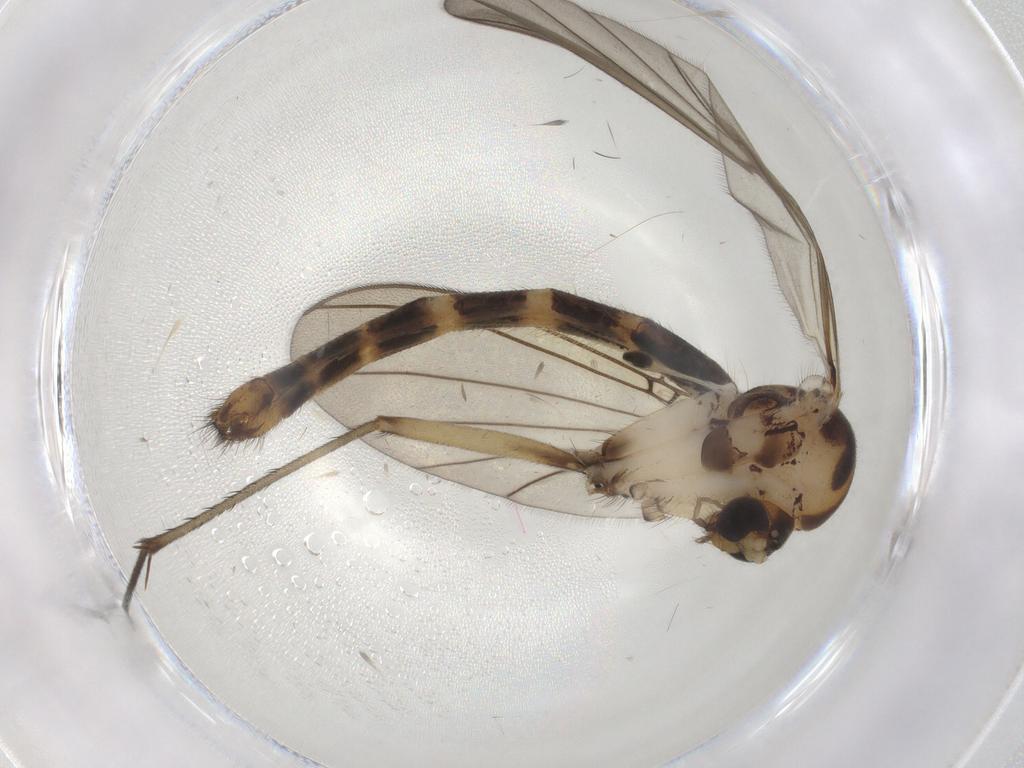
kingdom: Animalia
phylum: Arthropoda
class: Insecta
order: Diptera
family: Mycetophilidae
